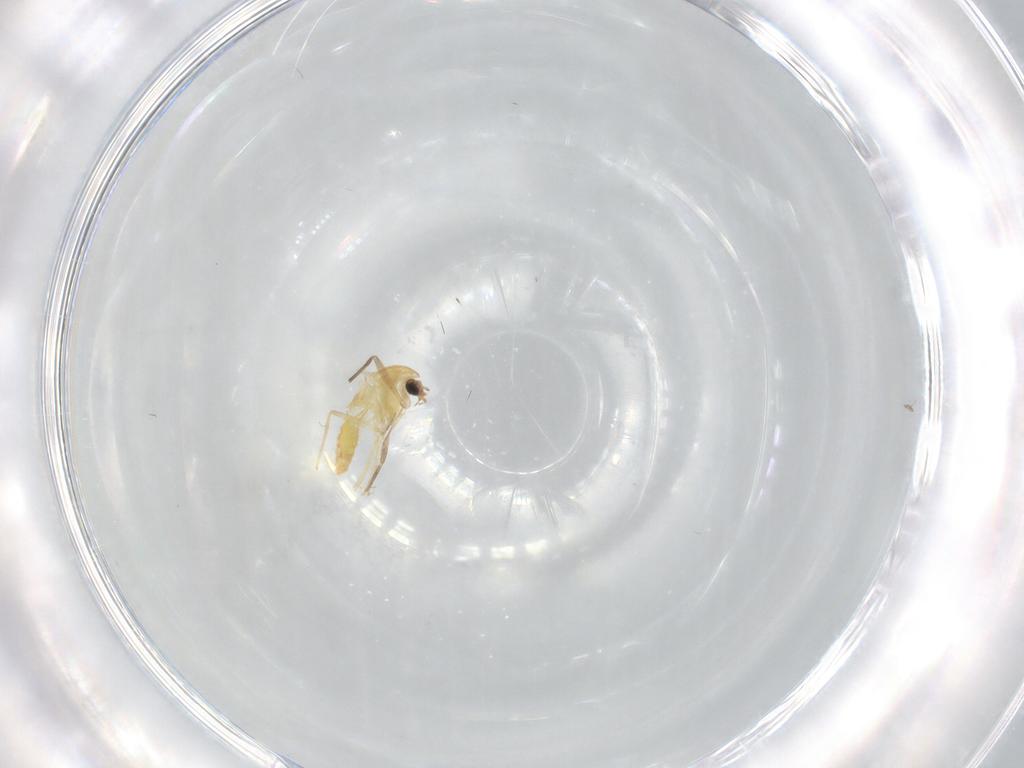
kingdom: Animalia
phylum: Arthropoda
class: Insecta
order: Diptera
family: Chironomidae
